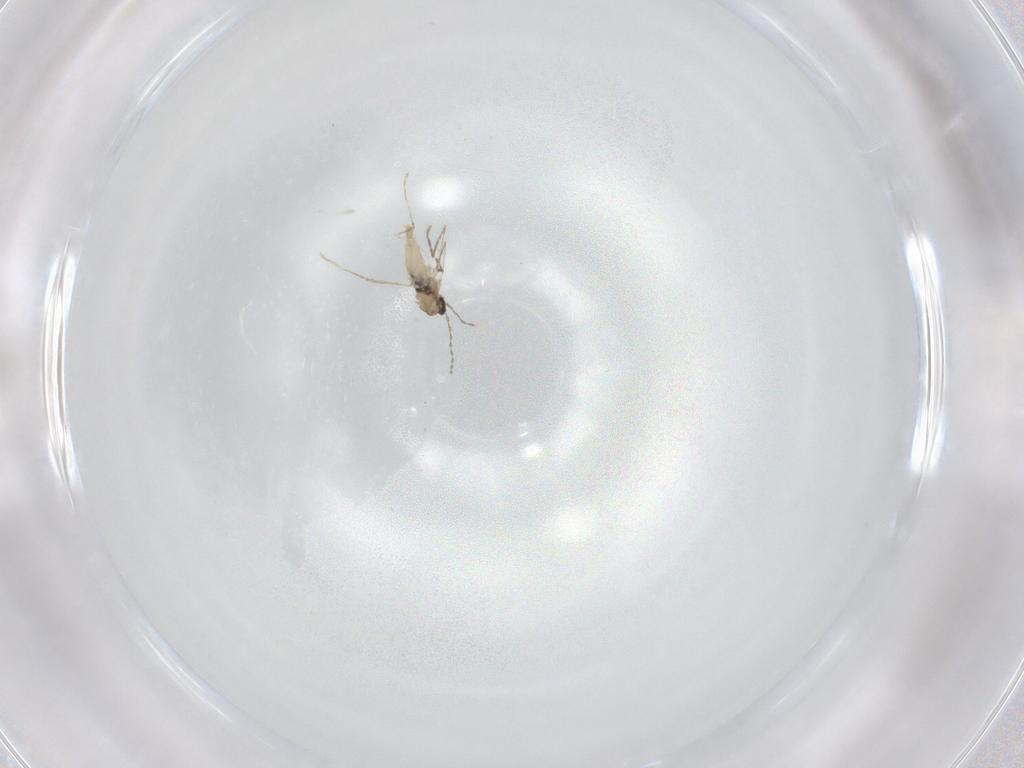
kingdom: Animalia
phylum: Arthropoda
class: Insecta
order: Diptera
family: Cecidomyiidae
